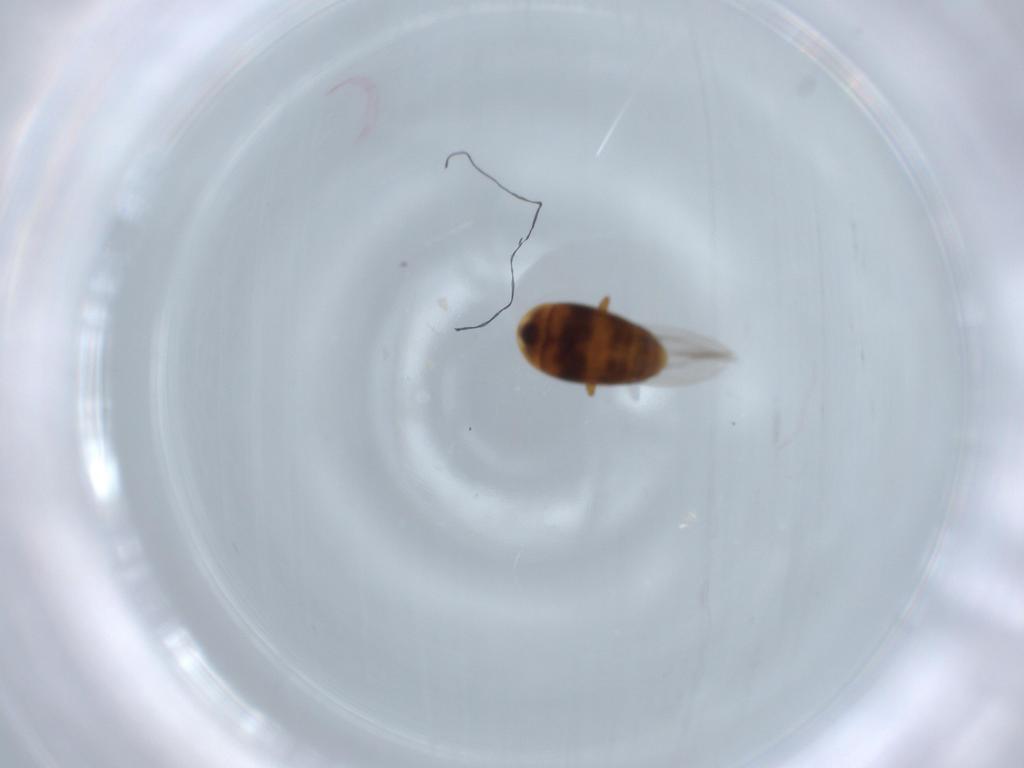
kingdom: Animalia
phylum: Arthropoda
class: Insecta
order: Coleoptera
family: Corylophidae
